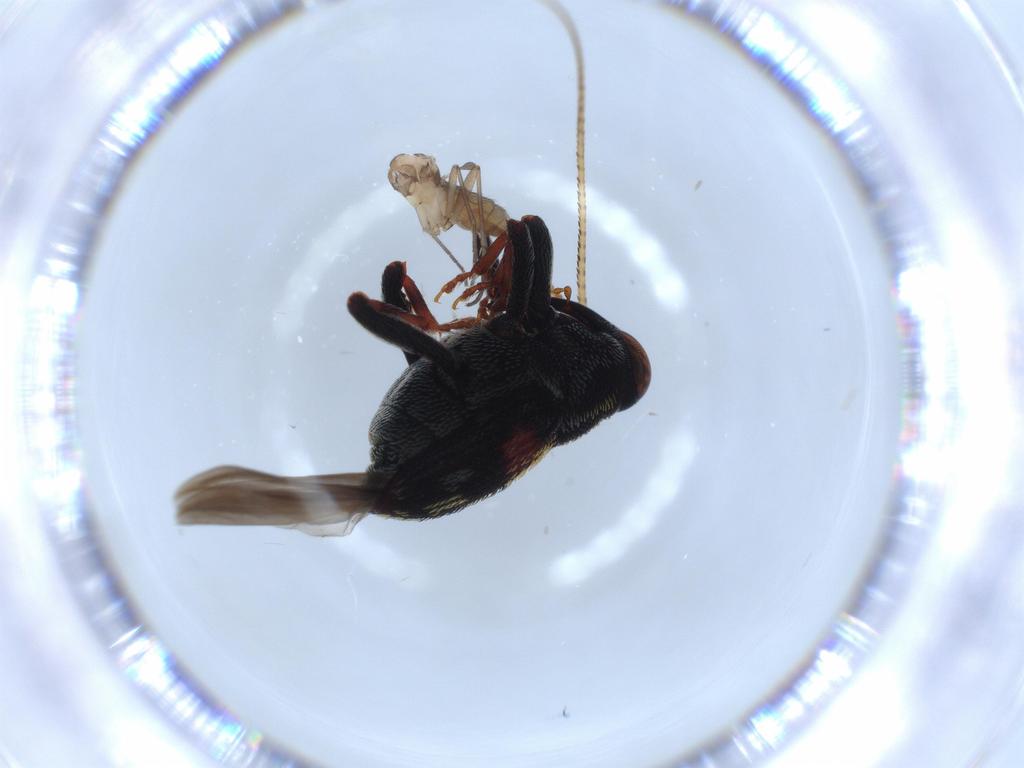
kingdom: Animalia
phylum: Arthropoda
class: Insecta
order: Coleoptera
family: Curculionidae
